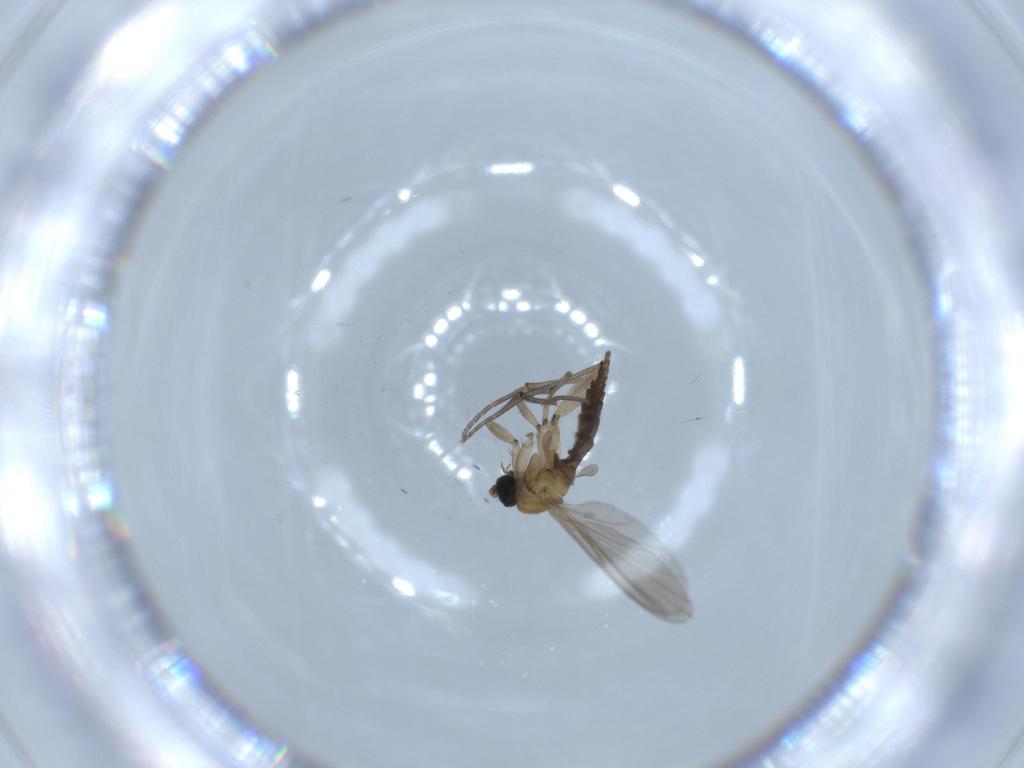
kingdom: Animalia
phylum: Arthropoda
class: Insecta
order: Diptera
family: Sciaridae
